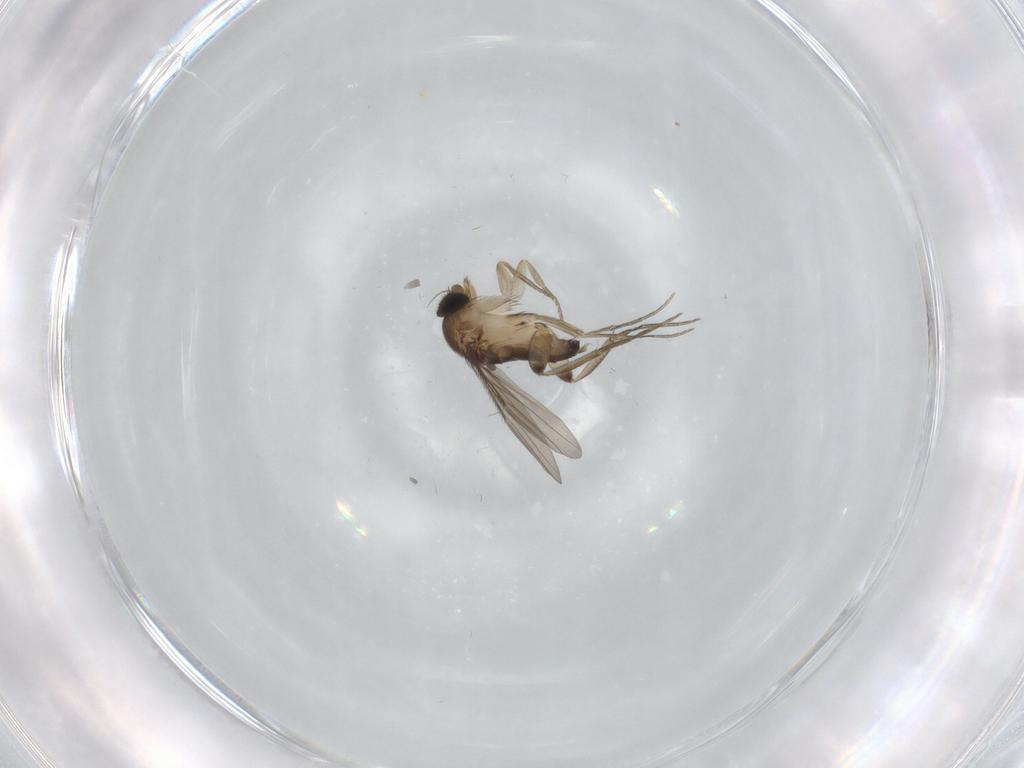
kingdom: Animalia
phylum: Arthropoda
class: Insecta
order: Diptera
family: Phoridae
